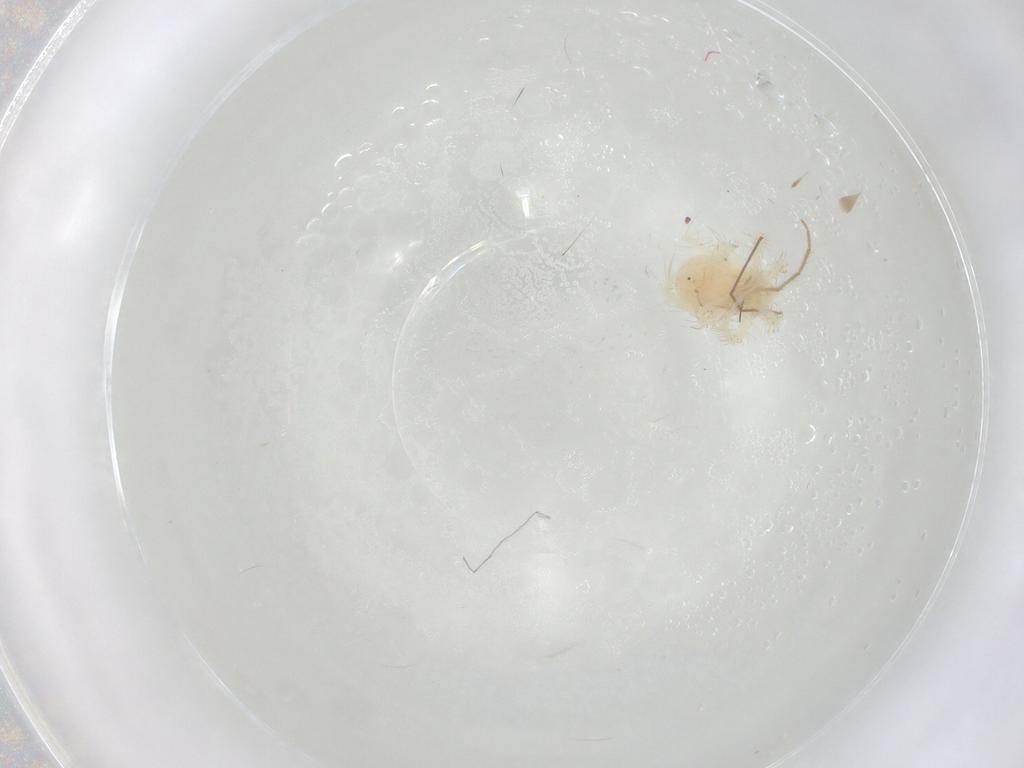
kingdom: Animalia
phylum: Arthropoda
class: Arachnida
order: Trombidiformes
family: Anystidae
